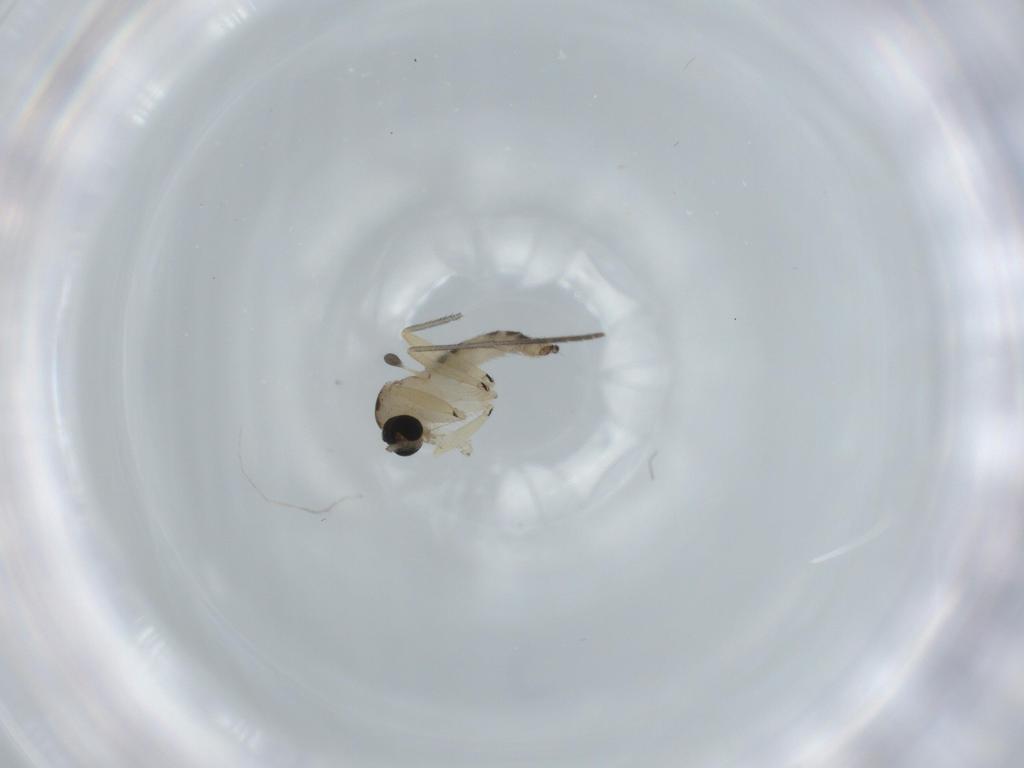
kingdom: Animalia
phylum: Arthropoda
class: Insecta
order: Diptera
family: Sciaridae
